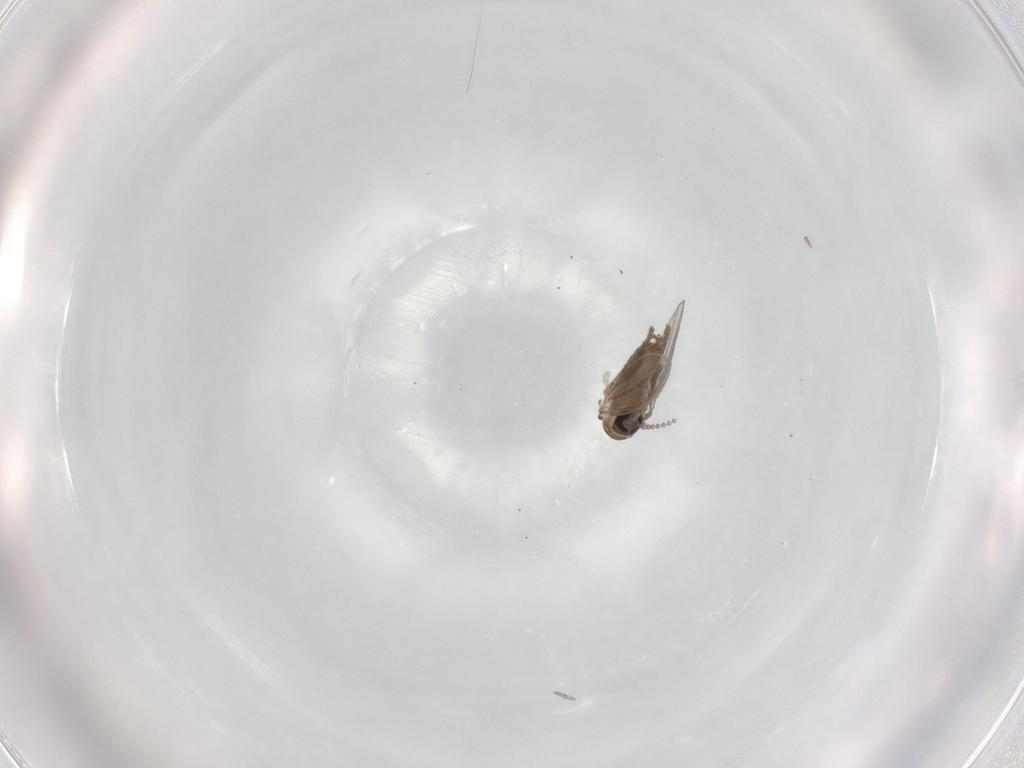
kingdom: Animalia
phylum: Arthropoda
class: Insecta
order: Diptera
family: Psychodidae
